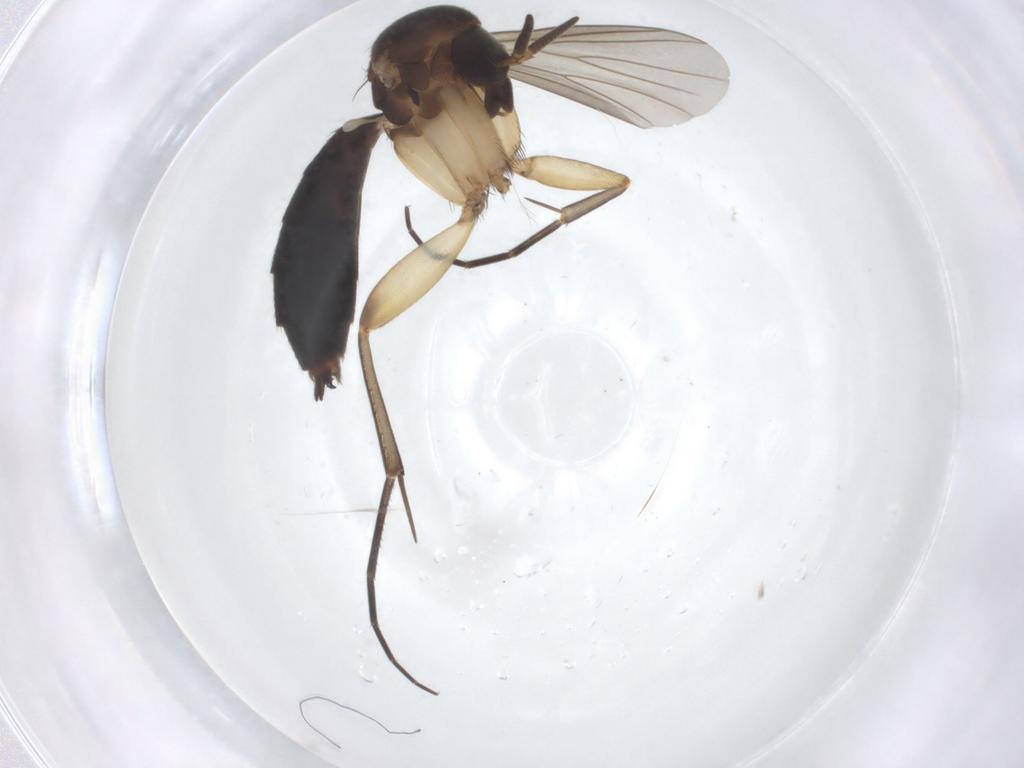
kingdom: Animalia
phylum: Arthropoda
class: Insecta
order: Diptera
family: Mycetophilidae
